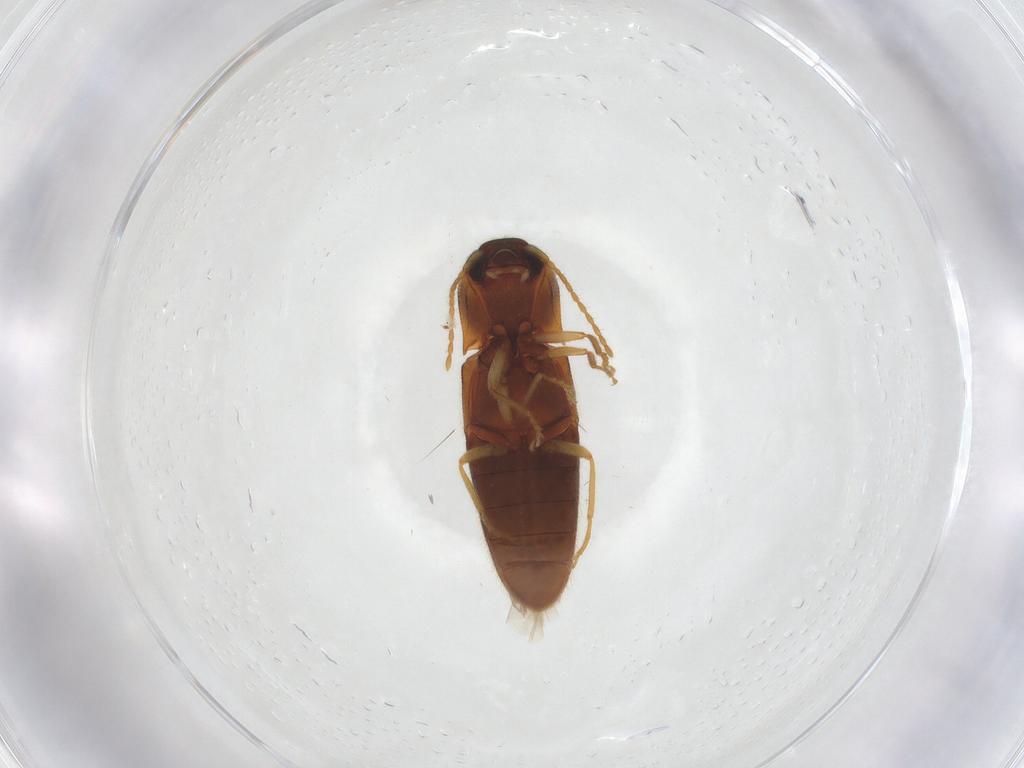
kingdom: Animalia
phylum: Arthropoda
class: Insecta
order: Coleoptera
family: Elateridae
